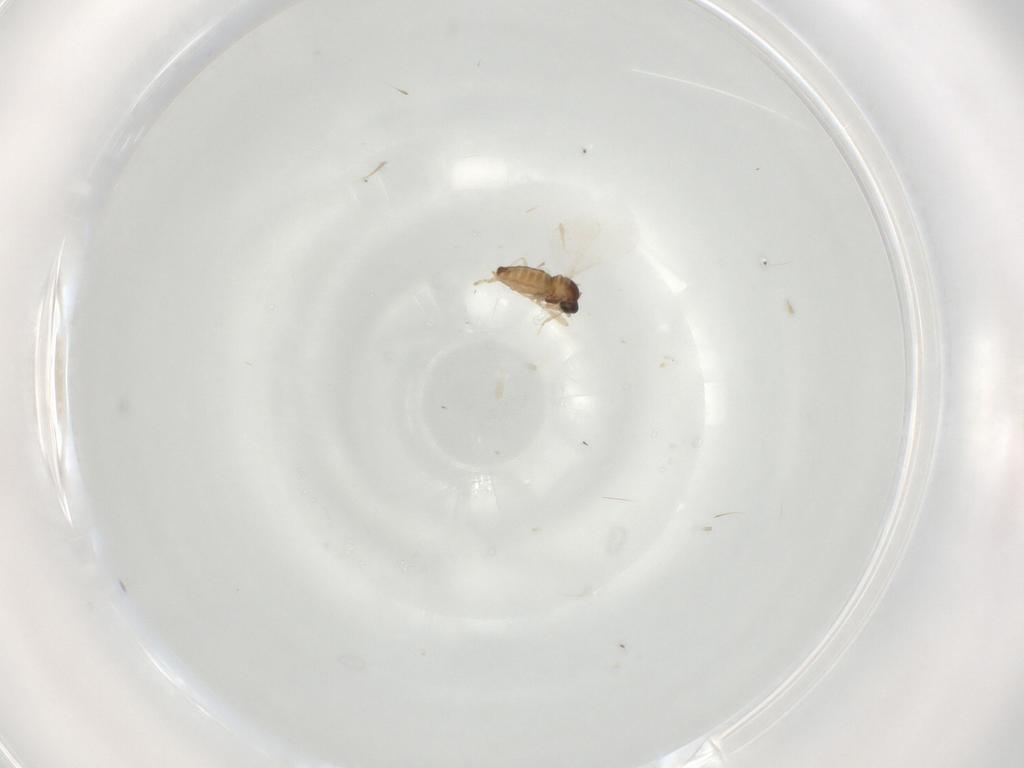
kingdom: Animalia
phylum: Arthropoda
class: Insecta
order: Diptera
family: Cecidomyiidae
